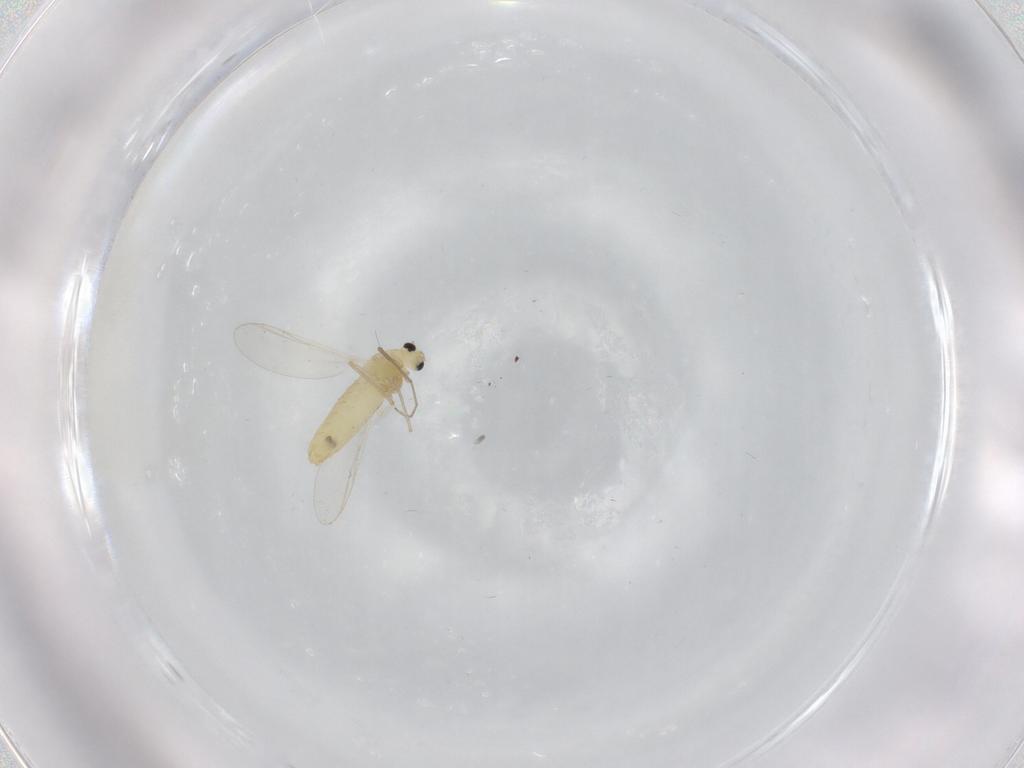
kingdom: Animalia
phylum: Arthropoda
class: Insecta
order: Diptera
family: Chironomidae
